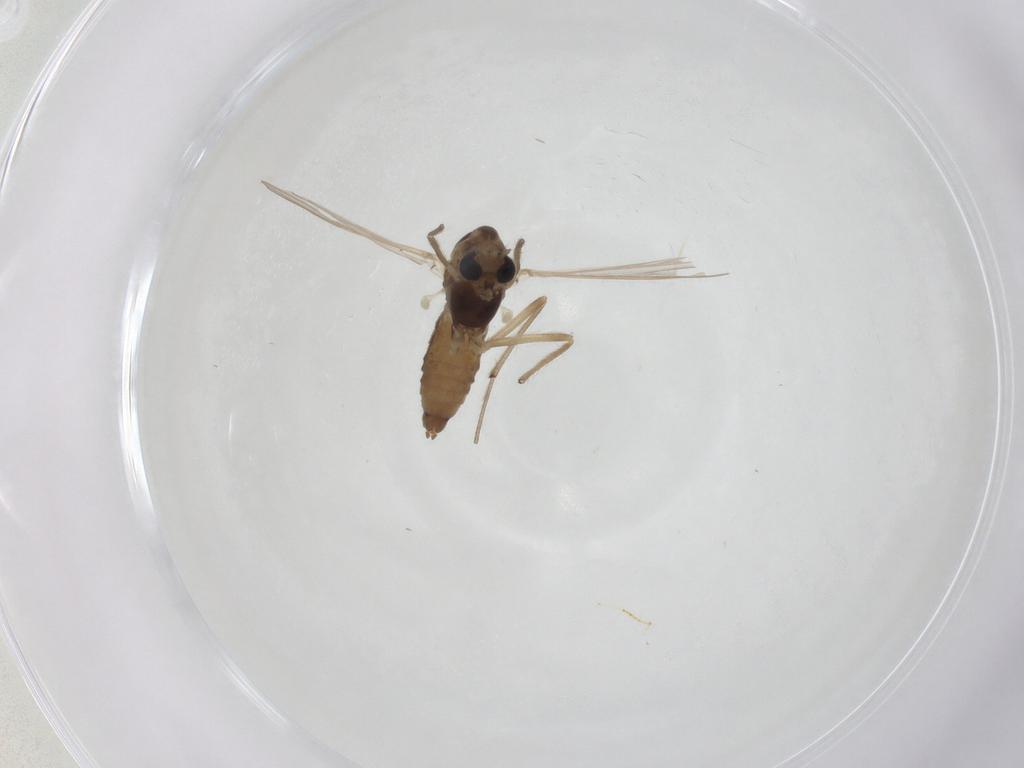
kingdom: Animalia
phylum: Arthropoda
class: Insecta
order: Diptera
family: Chironomidae
